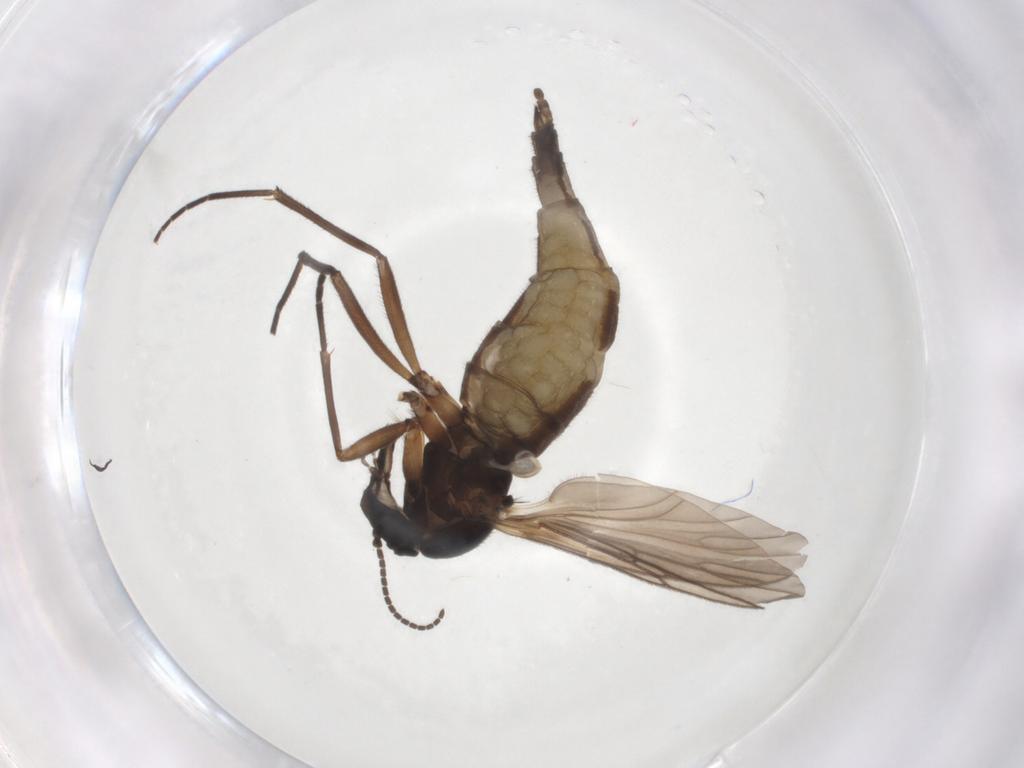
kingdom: Animalia
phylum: Arthropoda
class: Insecta
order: Diptera
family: Sciaridae
